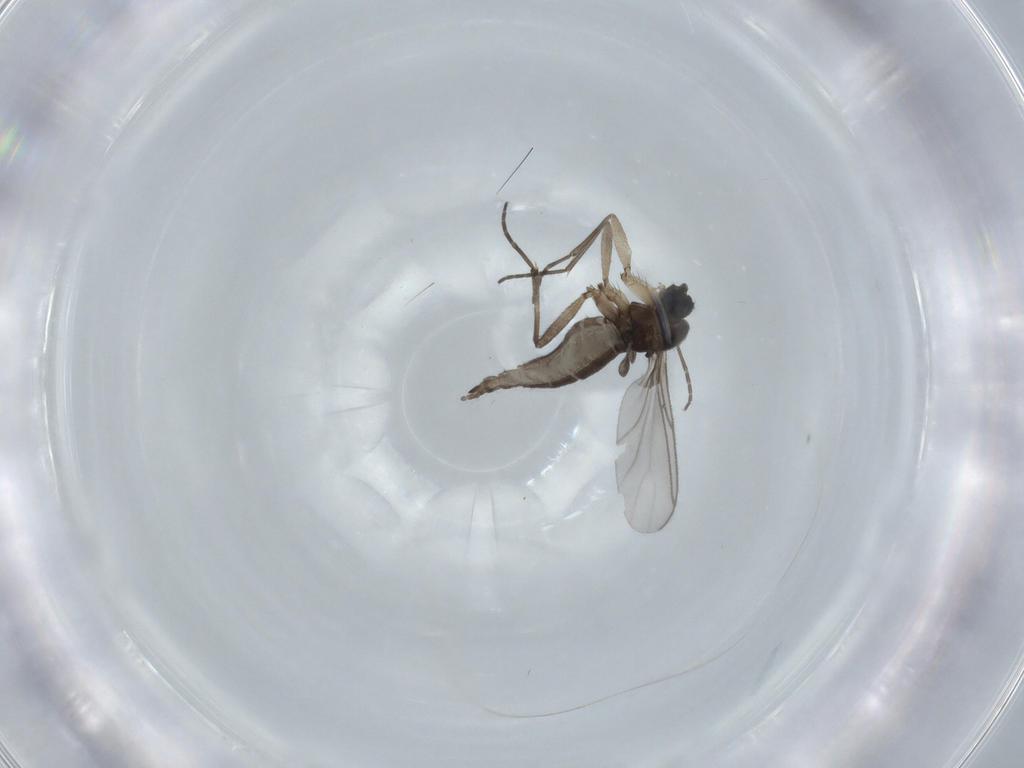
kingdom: Animalia
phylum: Arthropoda
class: Insecta
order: Diptera
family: Sciaridae
